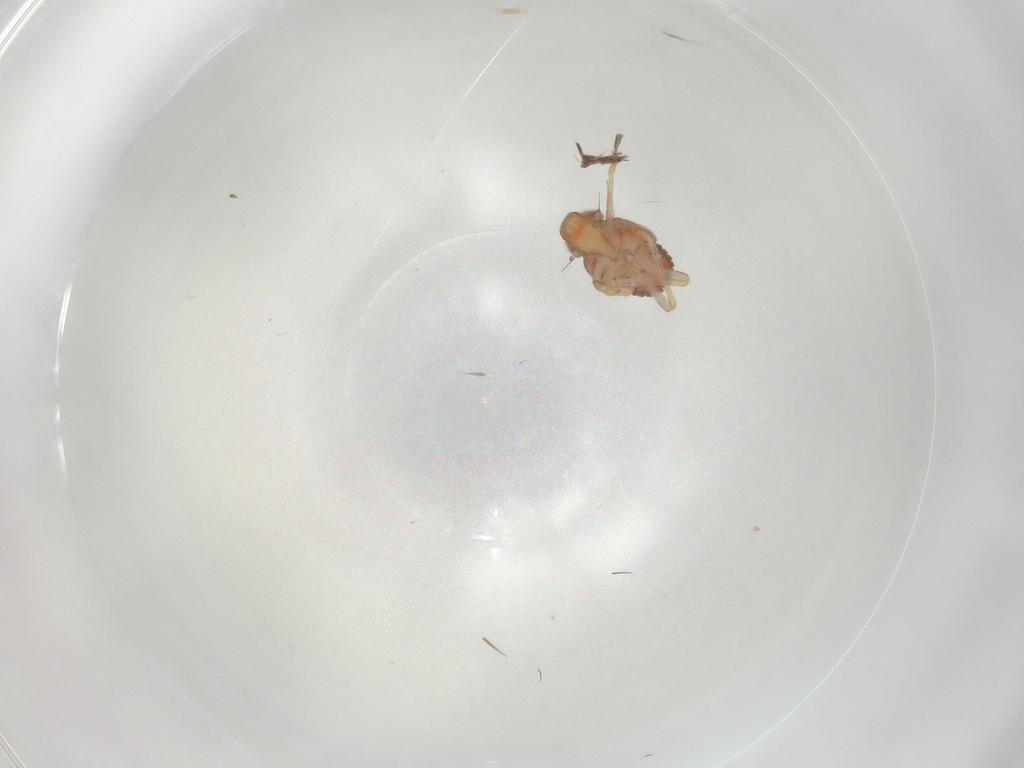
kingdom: Animalia
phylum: Arthropoda
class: Insecta
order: Hemiptera
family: Issidae
